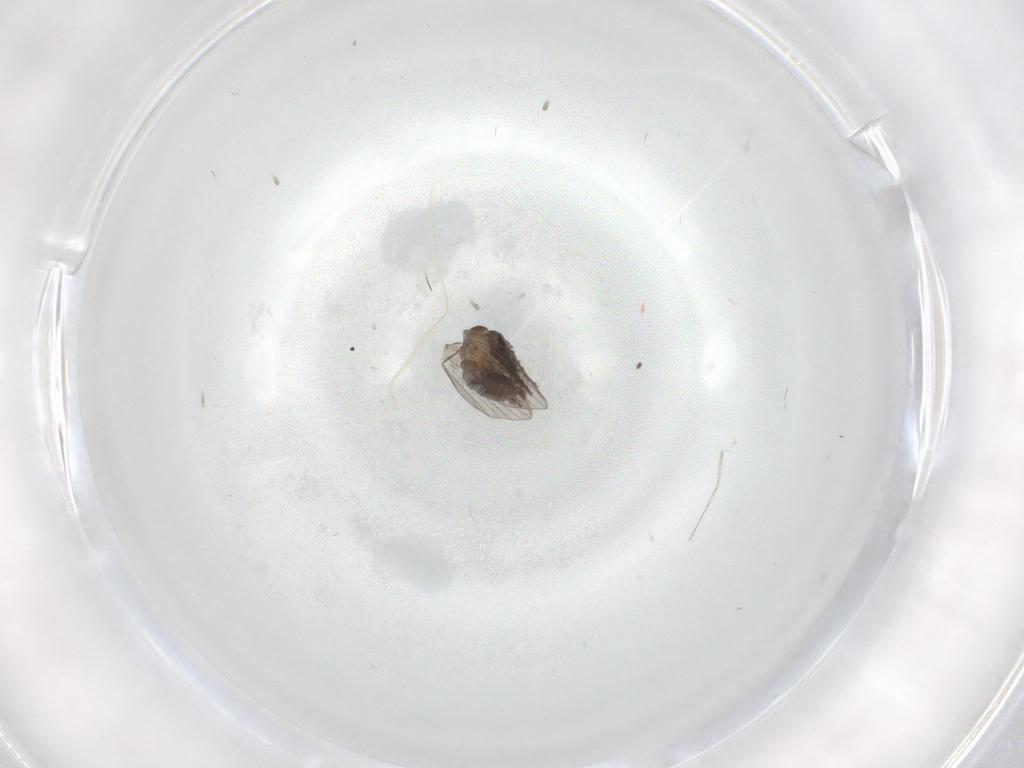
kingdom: Animalia
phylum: Arthropoda
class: Insecta
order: Diptera
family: Psychodidae
